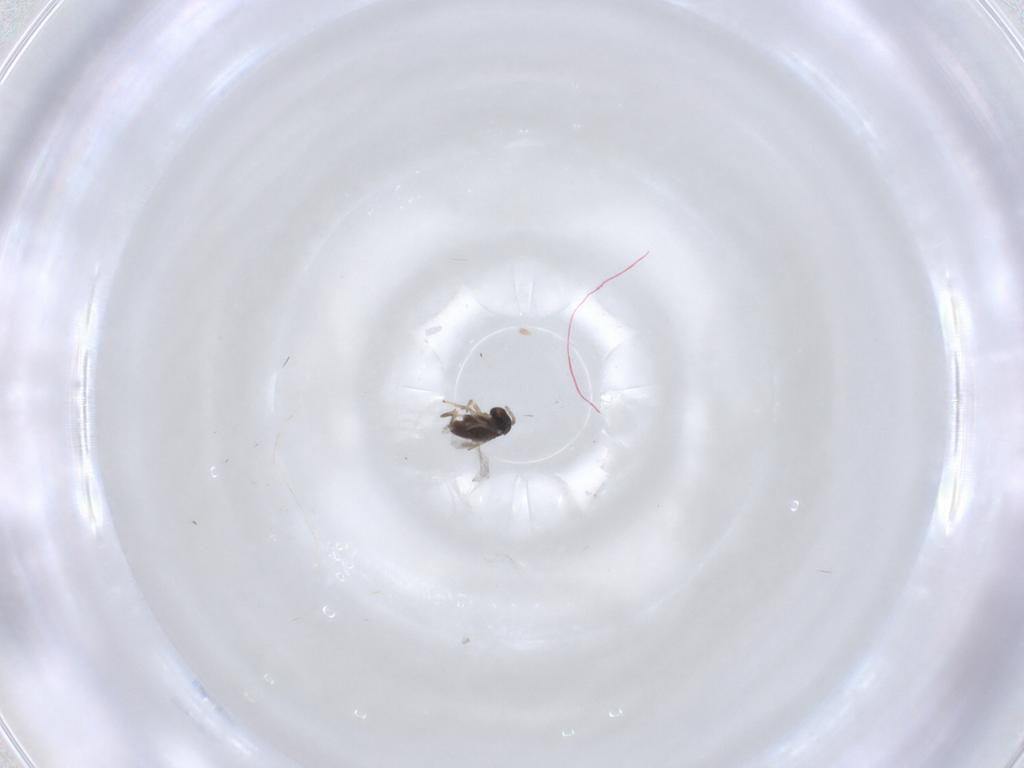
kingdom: Animalia
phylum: Arthropoda
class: Insecta
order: Hymenoptera
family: Encyrtidae
